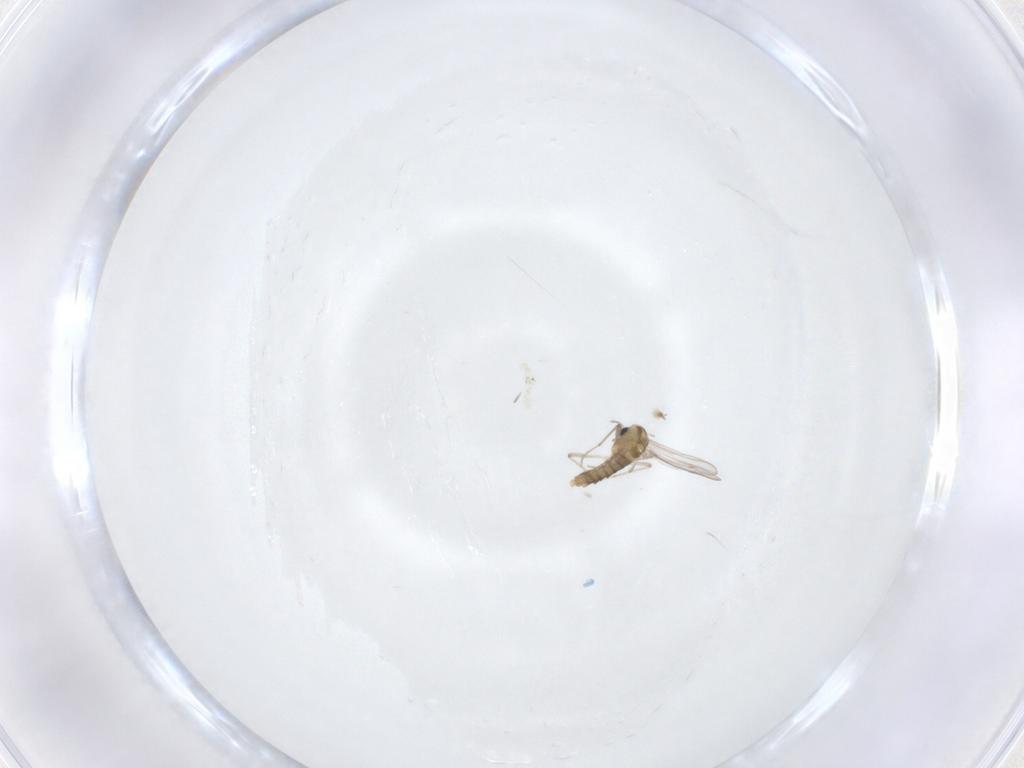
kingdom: Animalia
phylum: Arthropoda
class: Insecta
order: Diptera
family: Chironomidae
